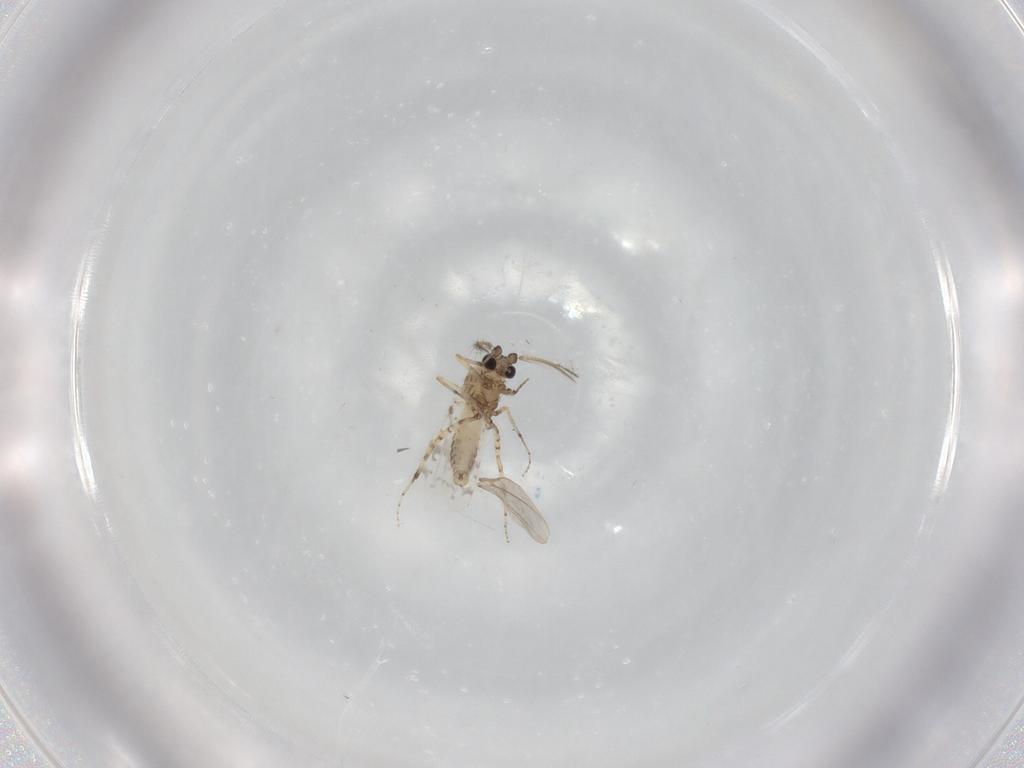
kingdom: Animalia
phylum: Arthropoda
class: Insecta
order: Diptera
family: Ceratopogonidae
